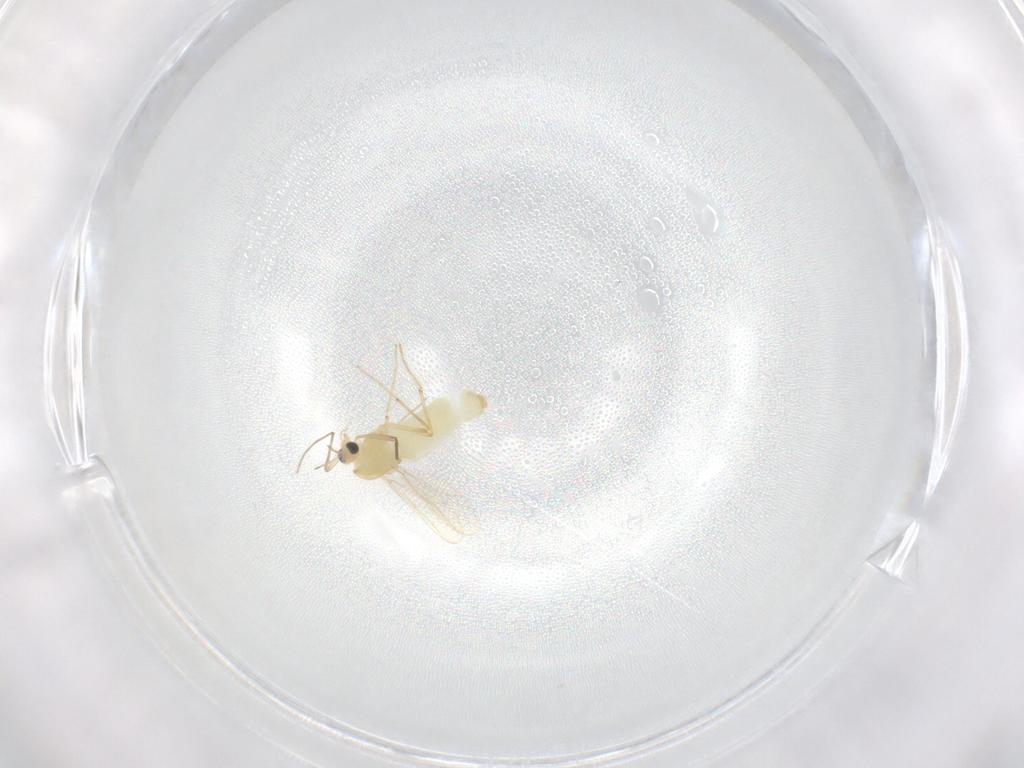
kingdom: Animalia
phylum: Arthropoda
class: Insecta
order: Diptera
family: Chironomidae
